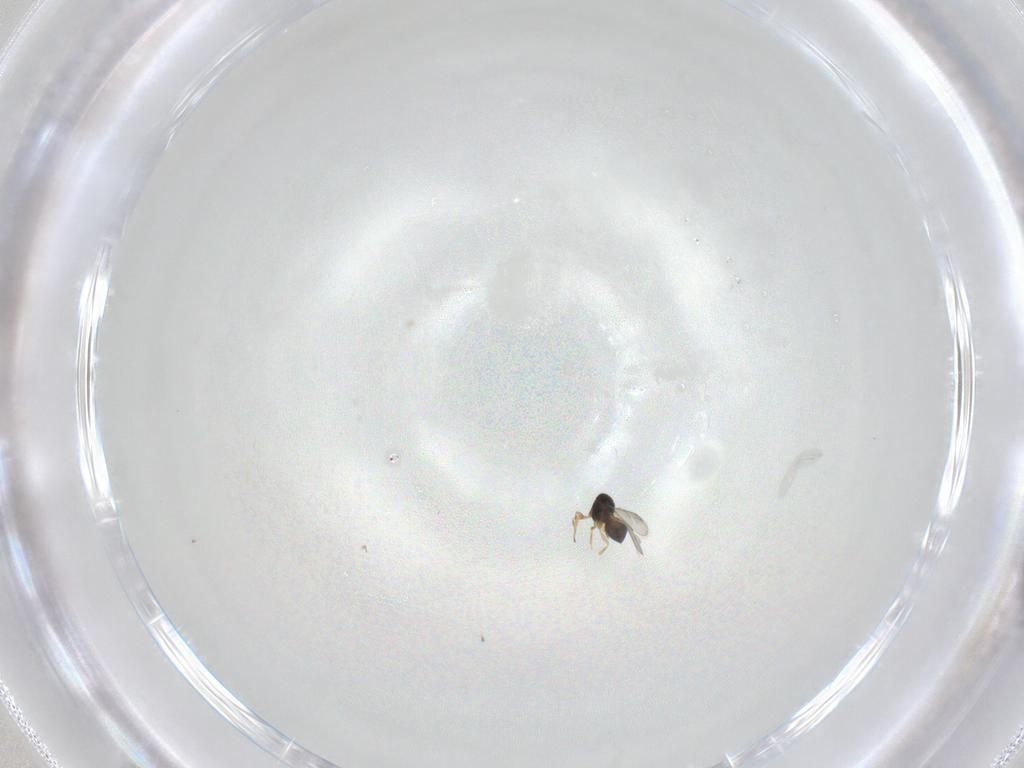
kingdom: Animalia
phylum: Arthropoda
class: Insecta
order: Hymenoptera
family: Scelionidae
